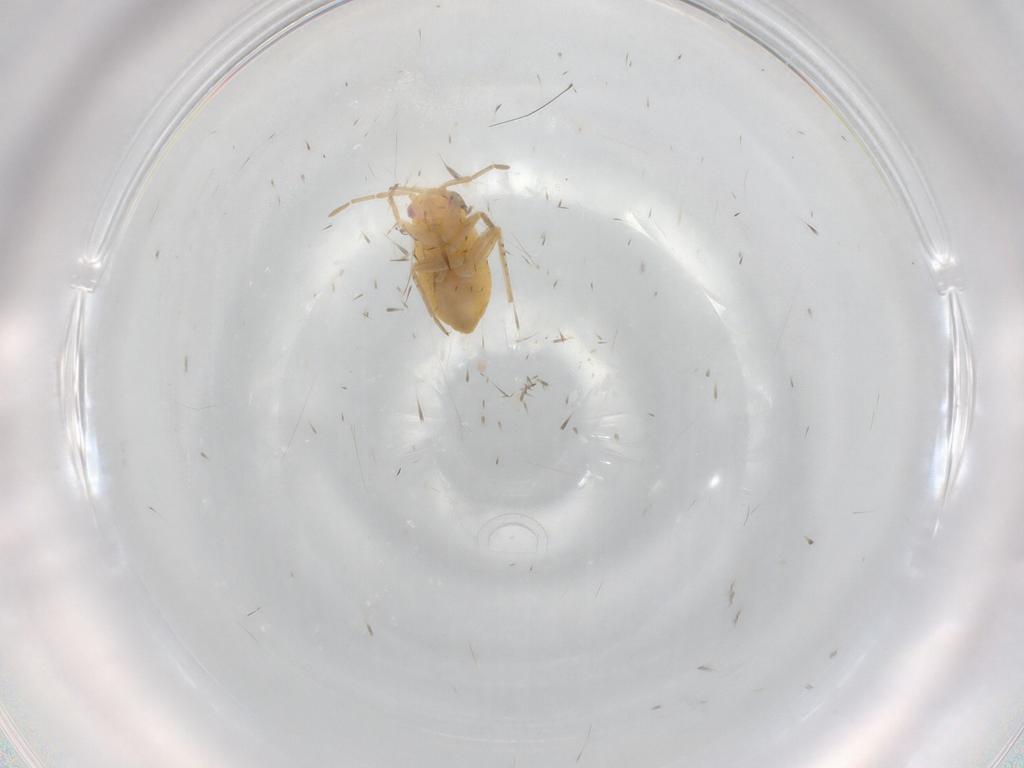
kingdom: Animalia
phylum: Arthropoda
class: Insecta
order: Hemiptera
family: Miridae
